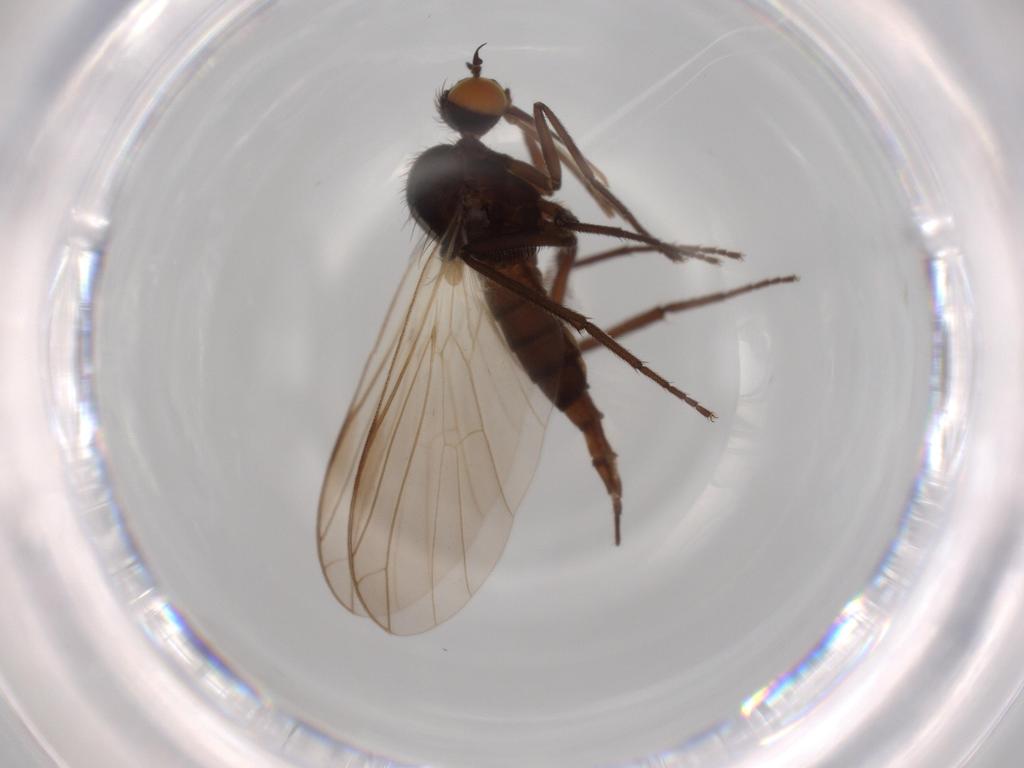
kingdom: Animalia
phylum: Arthropoda
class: Insecta
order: Diptera
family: Empididae
